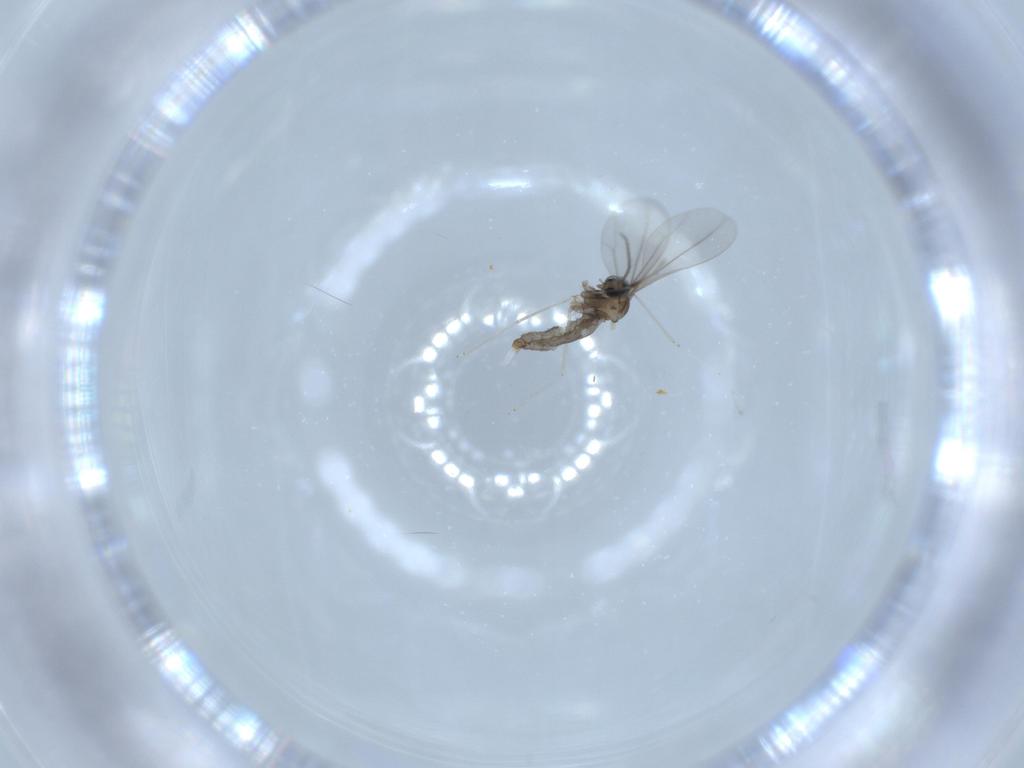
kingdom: Animalia
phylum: Arthropoda
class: Insecta
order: Diptera
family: Cecidomyiidae
